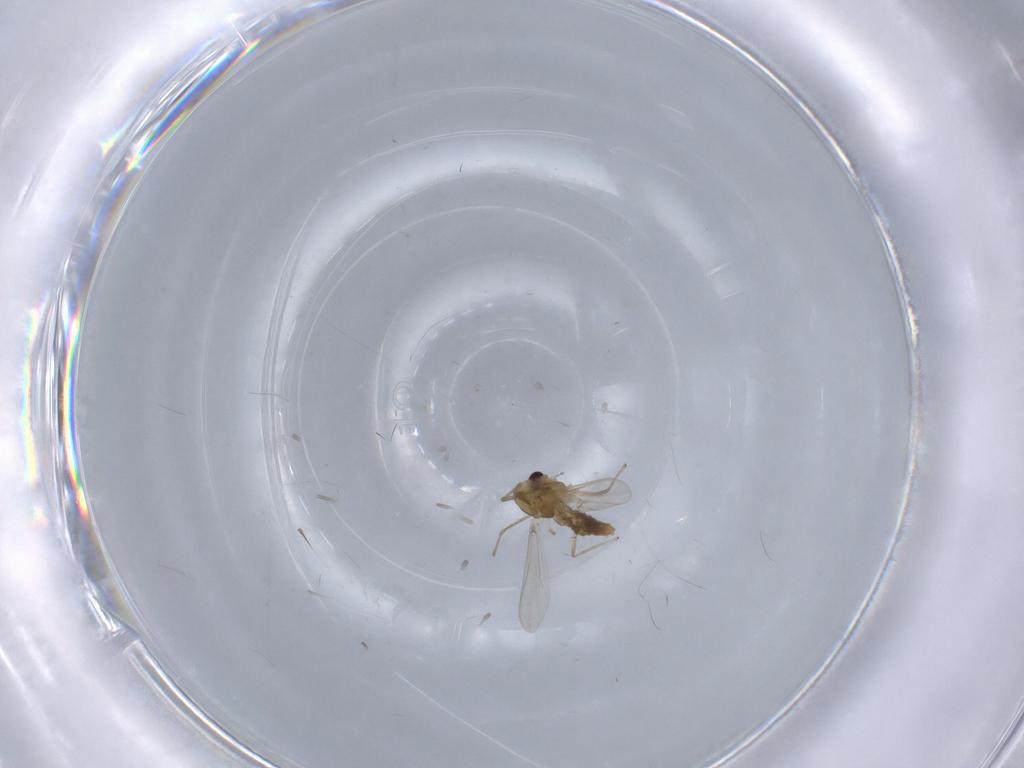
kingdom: Animalia
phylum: Arthropoda
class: Insecta
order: Diptera
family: Chironomidae
